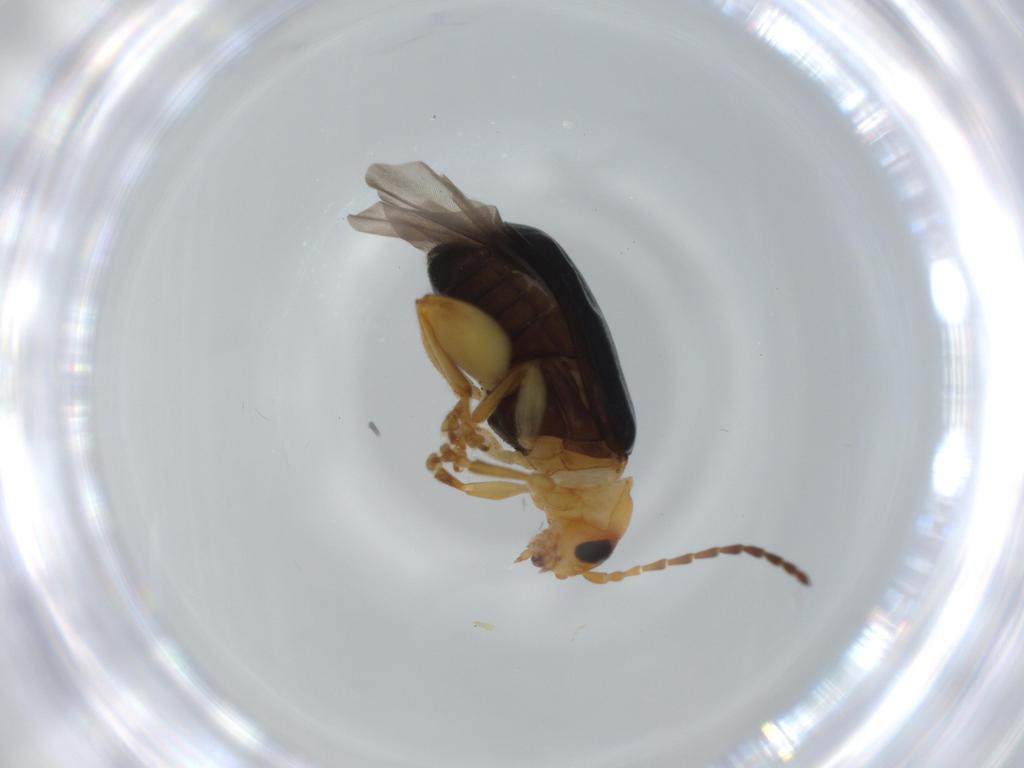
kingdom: Animalia
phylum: Arthropoda
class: Insecta
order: Coleoptera
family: Chrysomelidae
